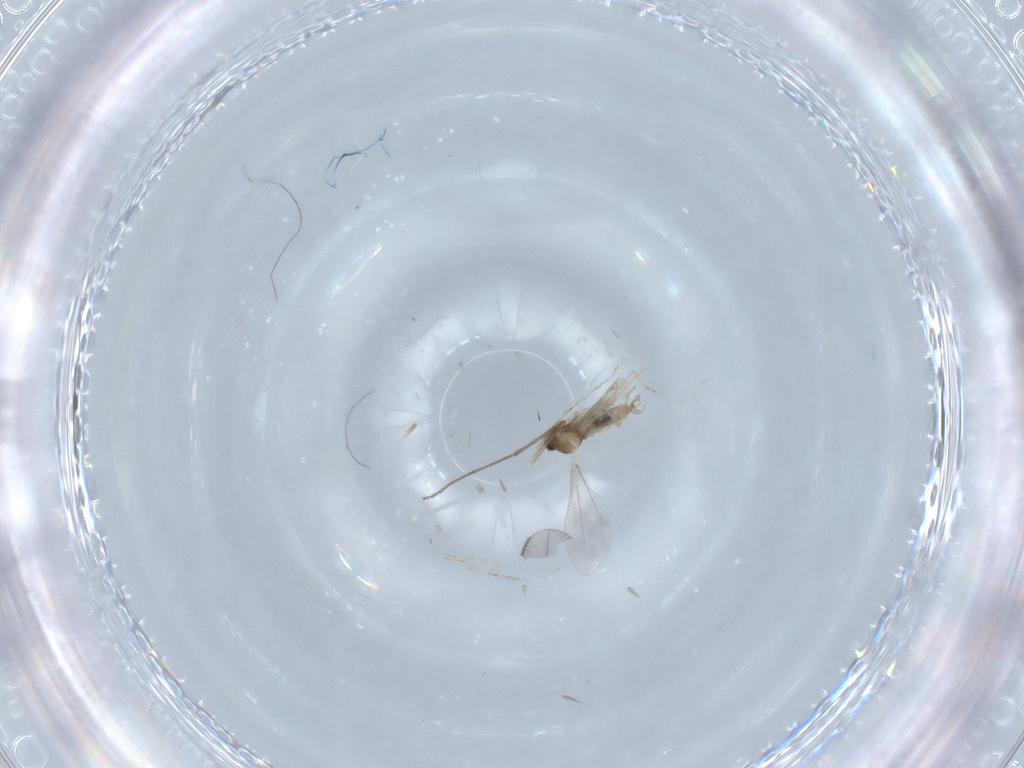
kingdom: Animalia
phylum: Arthropoda
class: Insecta
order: Diptera
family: Cecidomyiidae
